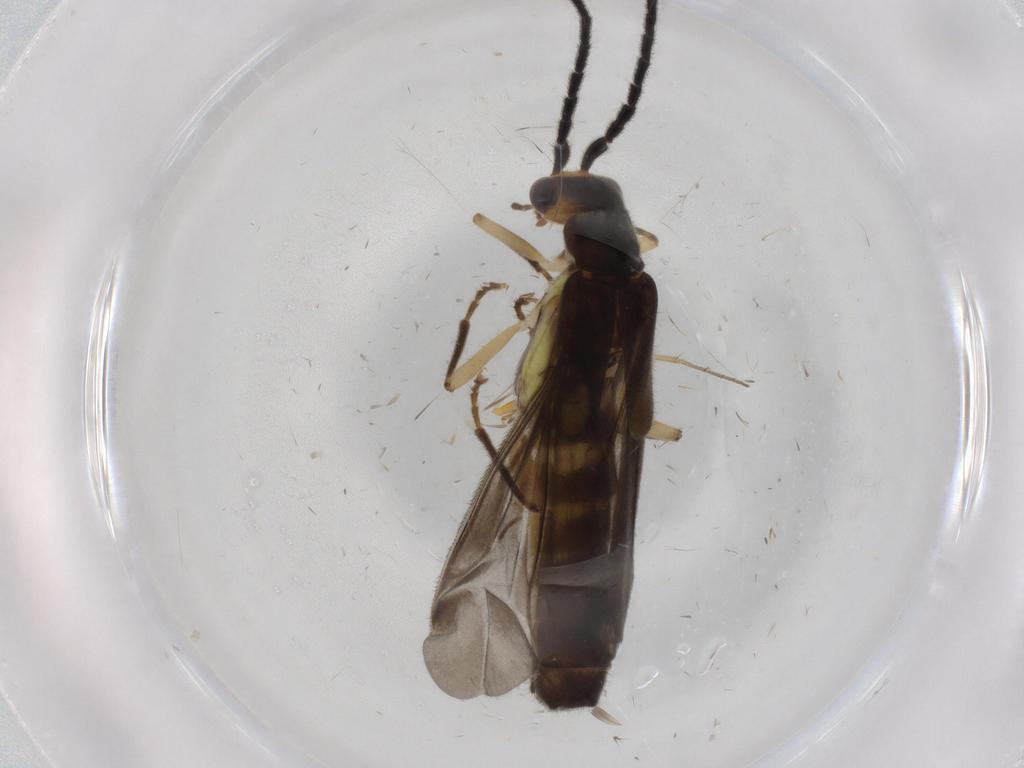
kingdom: Animalia
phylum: Arthropoda
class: Insecta
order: Coleoptera
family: Cantharidae
